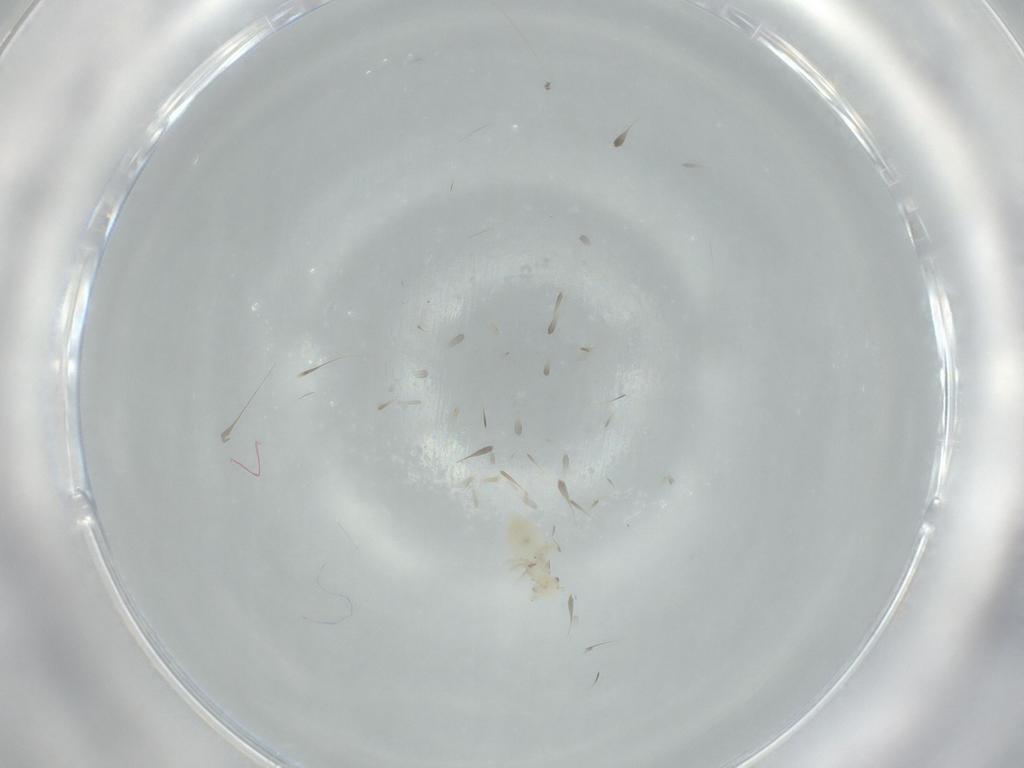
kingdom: Animalia
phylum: Arthropoda
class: Insecta
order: Psocodea
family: Caeciliusidae
